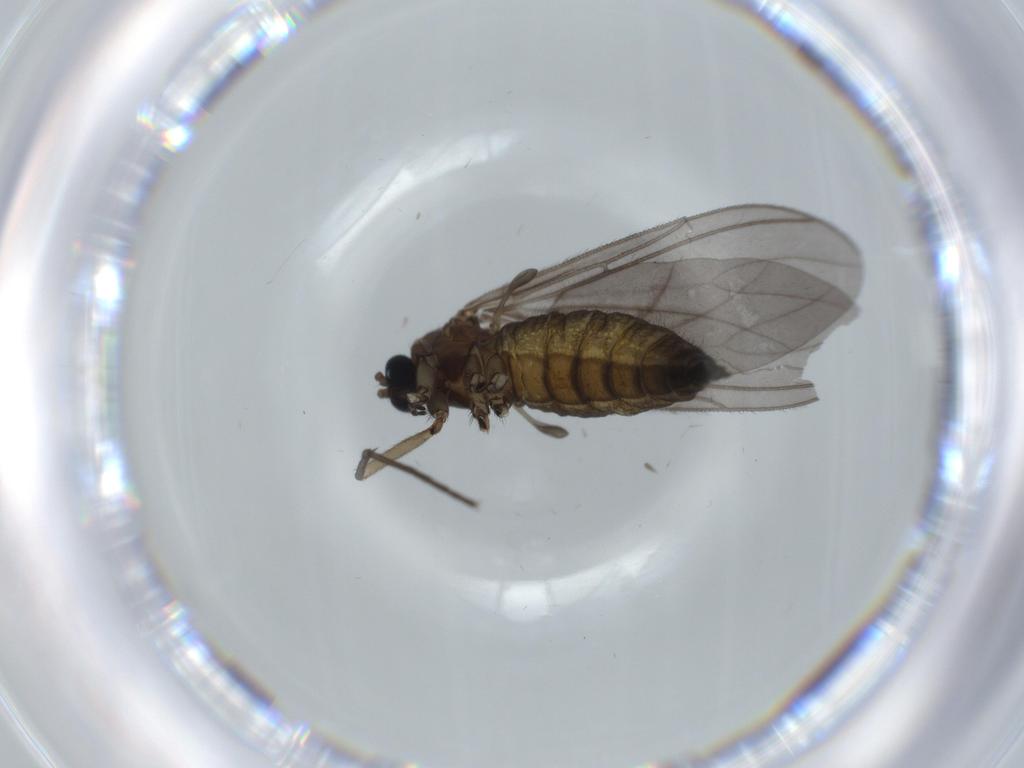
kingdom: Animalia
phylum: Arthropoda
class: Insecta
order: Diptera
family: Sciaridae
